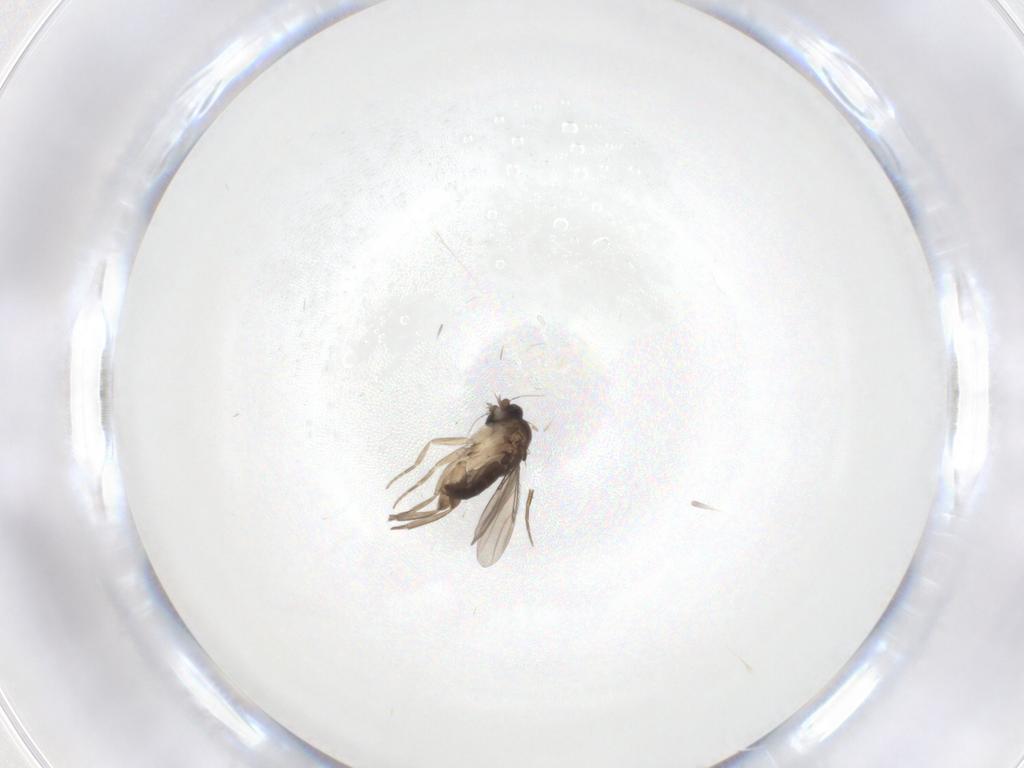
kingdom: Animalia
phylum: Arthropoda
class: Insecta
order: Diptera
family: Phoridae
